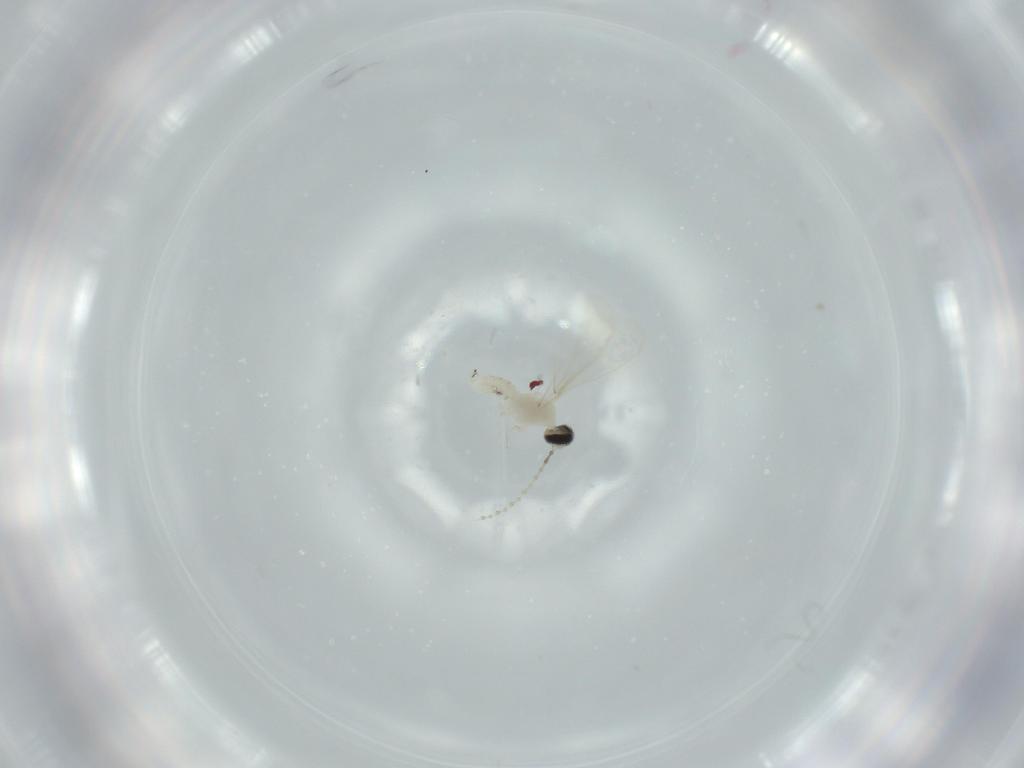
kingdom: Animalia
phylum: Arthropoda
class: Insecta
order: Diptera
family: Cecidomyiidae
